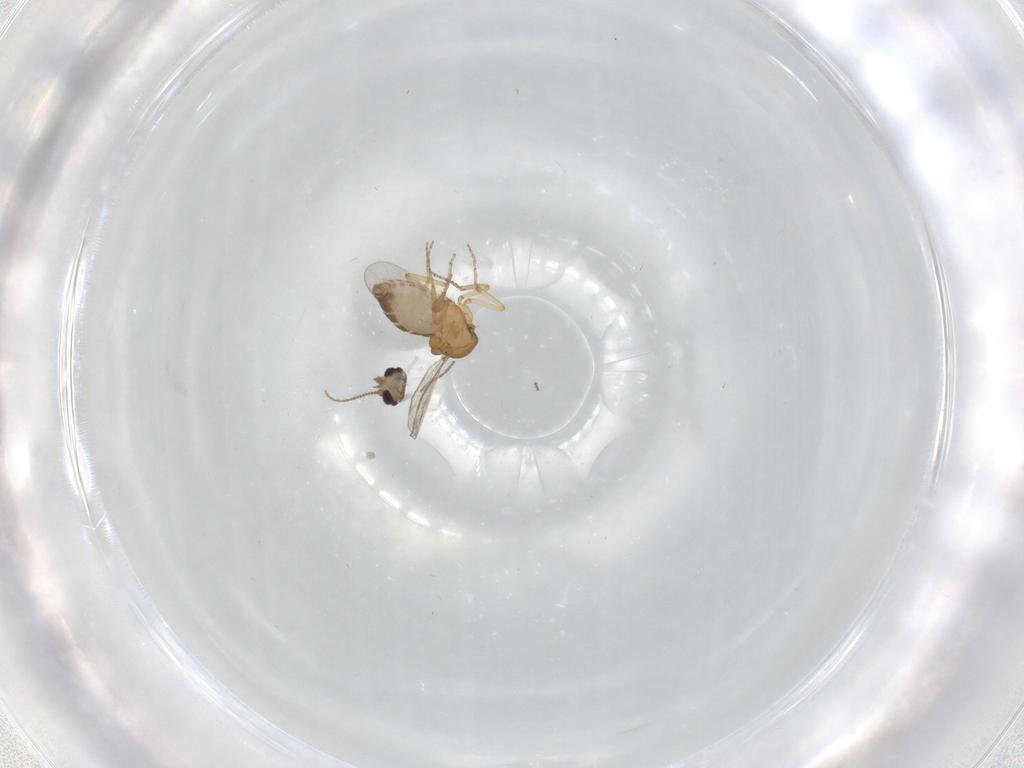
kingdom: Animalia
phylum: Arthropoda
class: Insecta
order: Diptera
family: Ceratopogonidae
